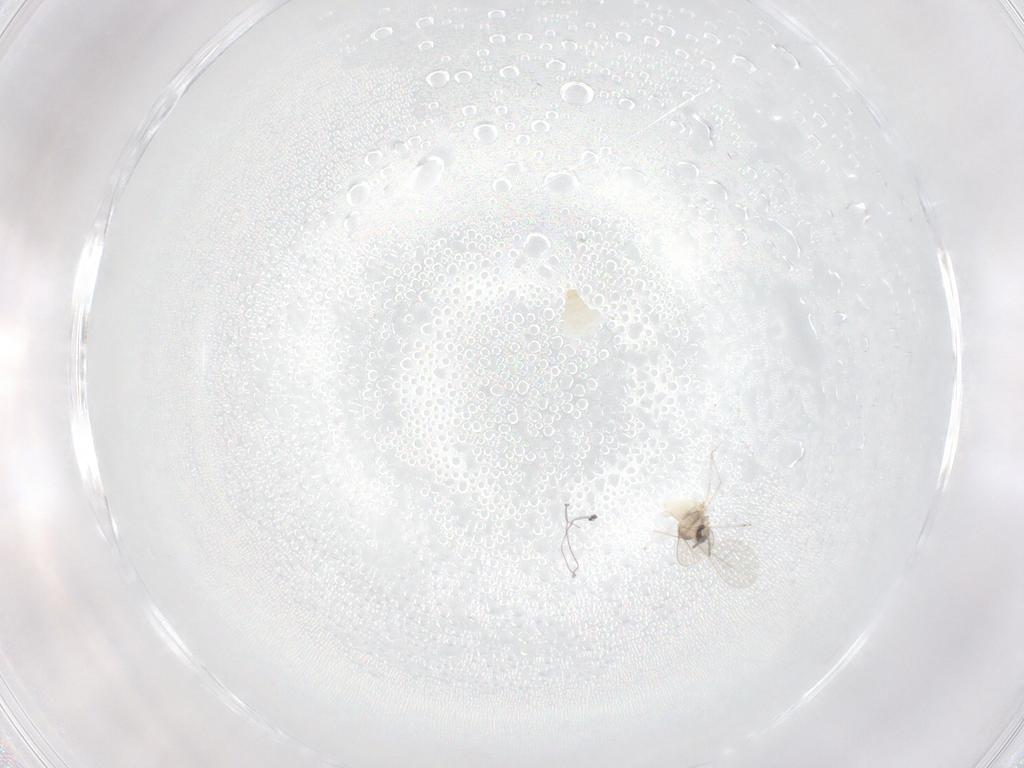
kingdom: Animalia
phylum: Arthropoda
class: Insecta
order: Diptera
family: Cecidomyiidae
